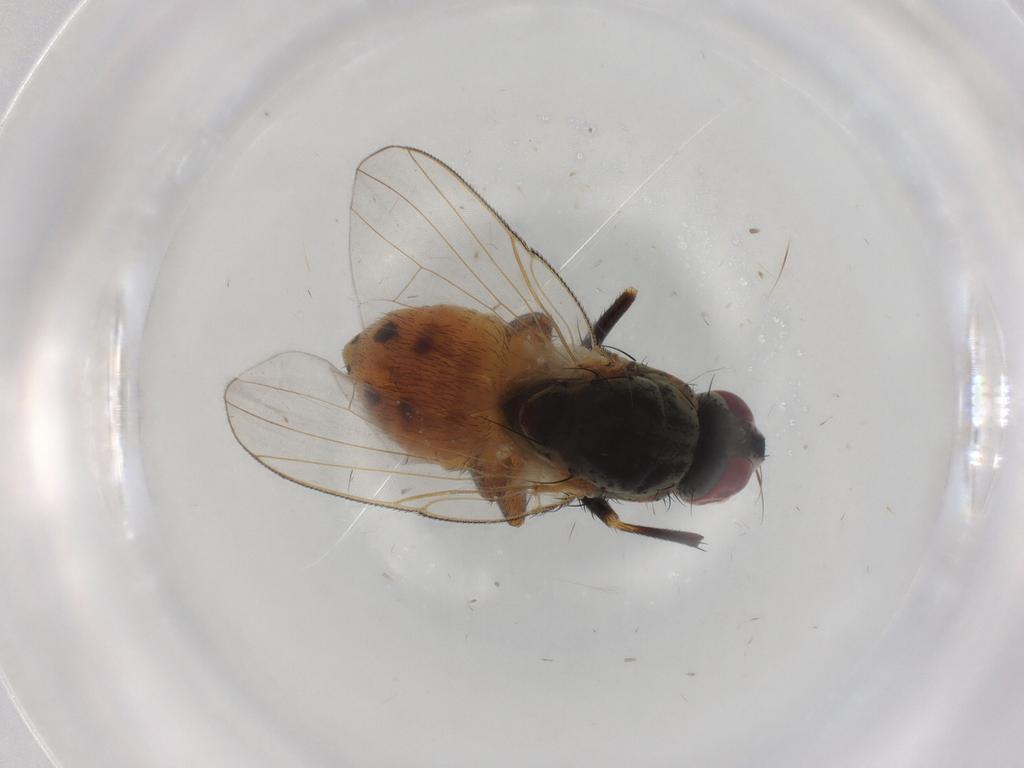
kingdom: Animalia
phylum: Arthropoda
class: Insecta
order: Diptera
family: Ceratopogonidae
